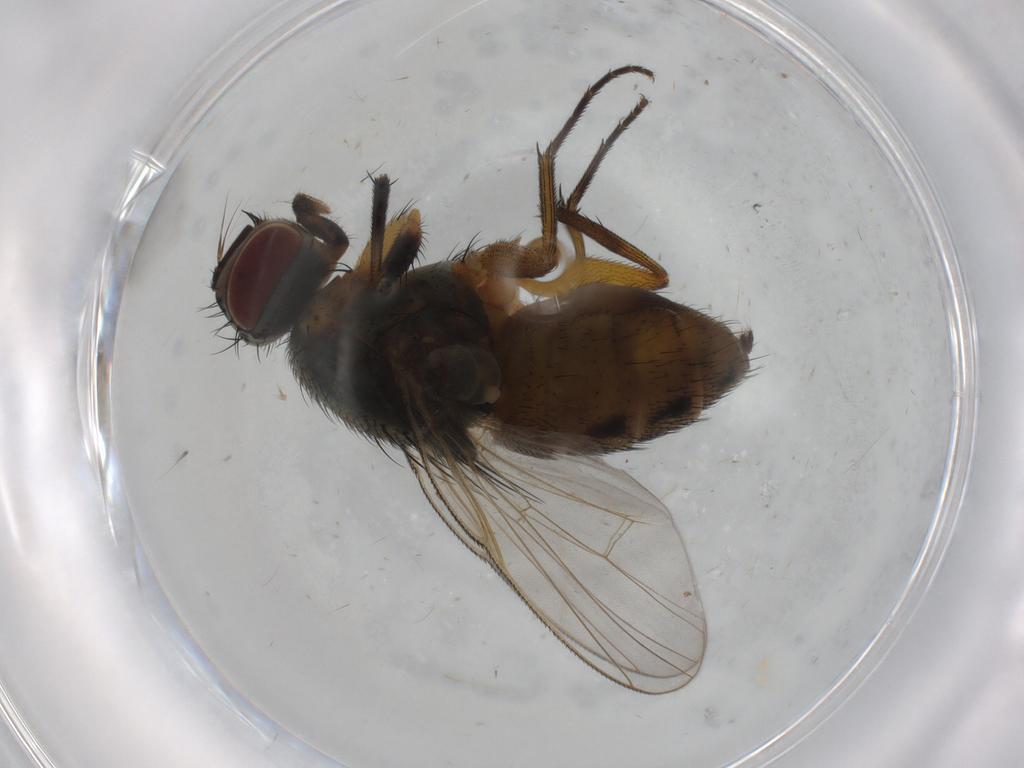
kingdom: Animalia
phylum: Arthropoda
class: Insecta
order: Diptera
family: Muscidae
